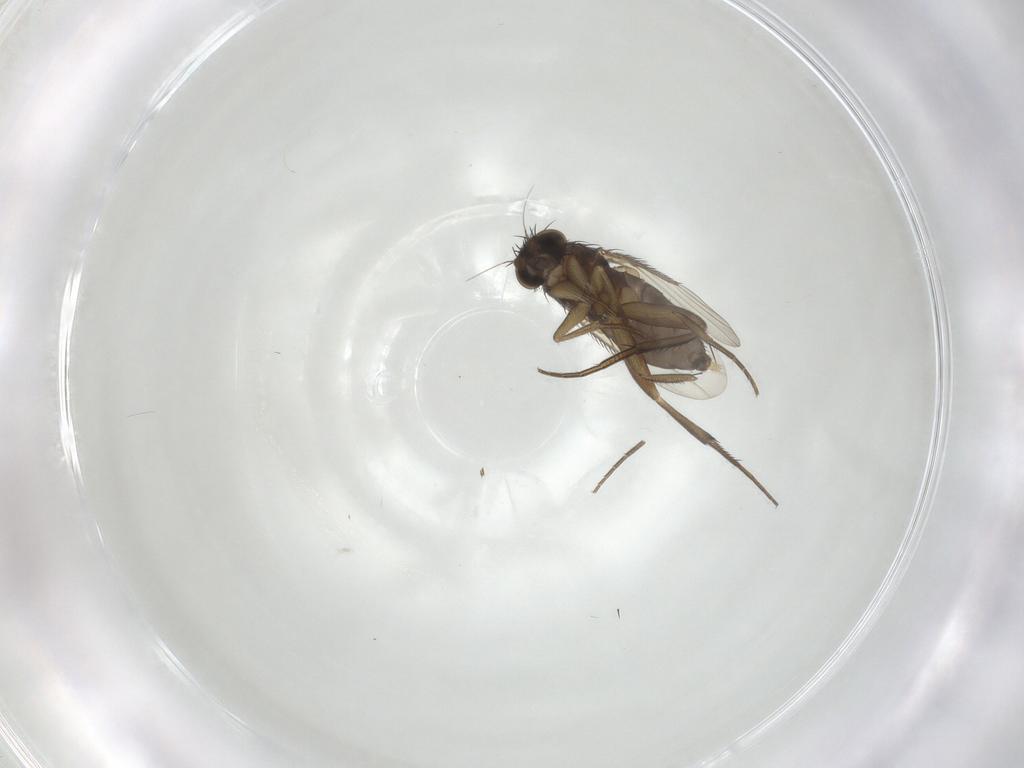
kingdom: Animalia
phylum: Arthropoda
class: Insecta
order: Diptera
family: Phoridae
